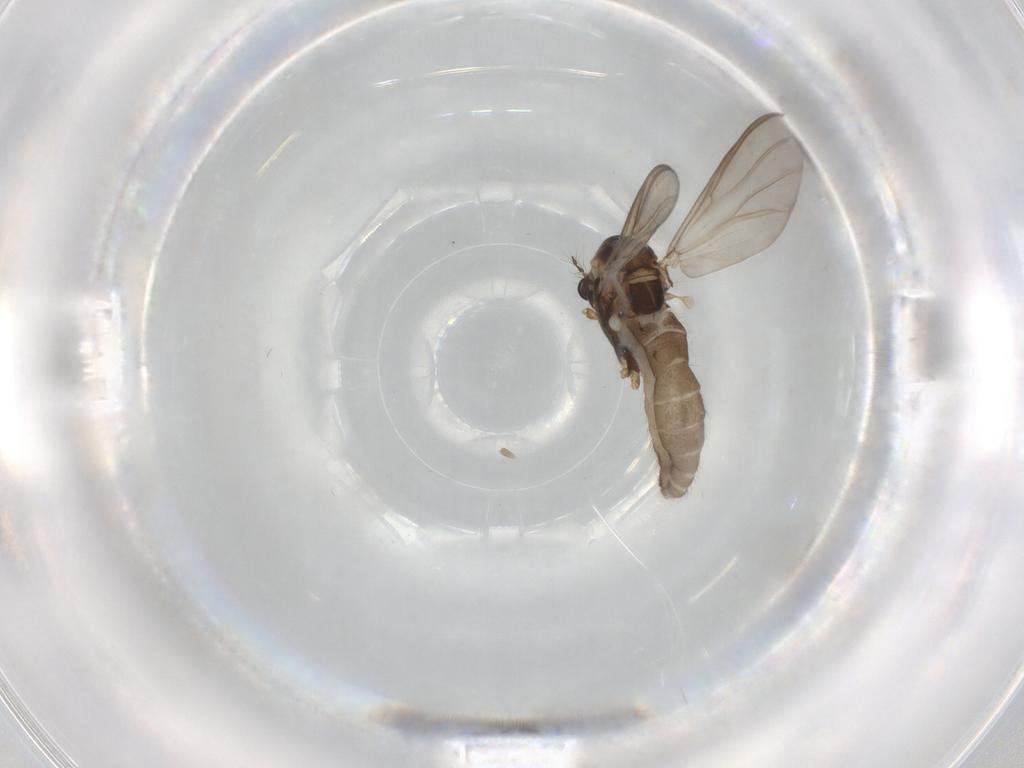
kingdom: Animalia
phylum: Arthropoda
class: Insecta
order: Diptera
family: Chironomidae
